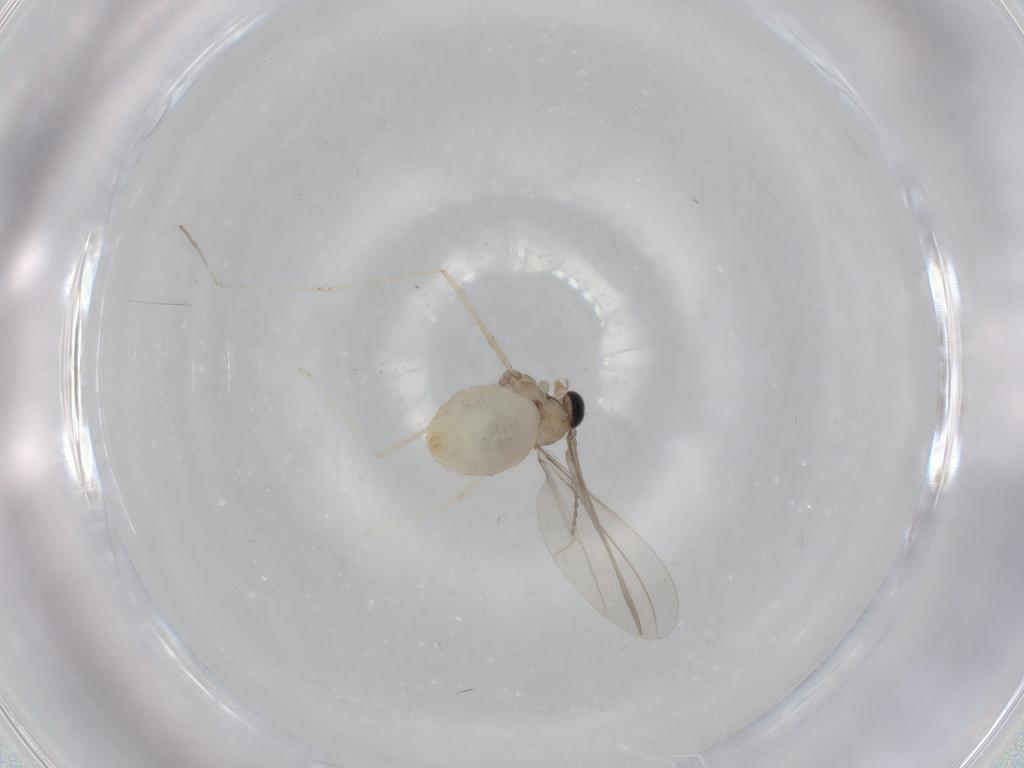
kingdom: Animalia
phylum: Arthropoda
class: Insecta
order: Diptera
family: Cecidomyiidae
